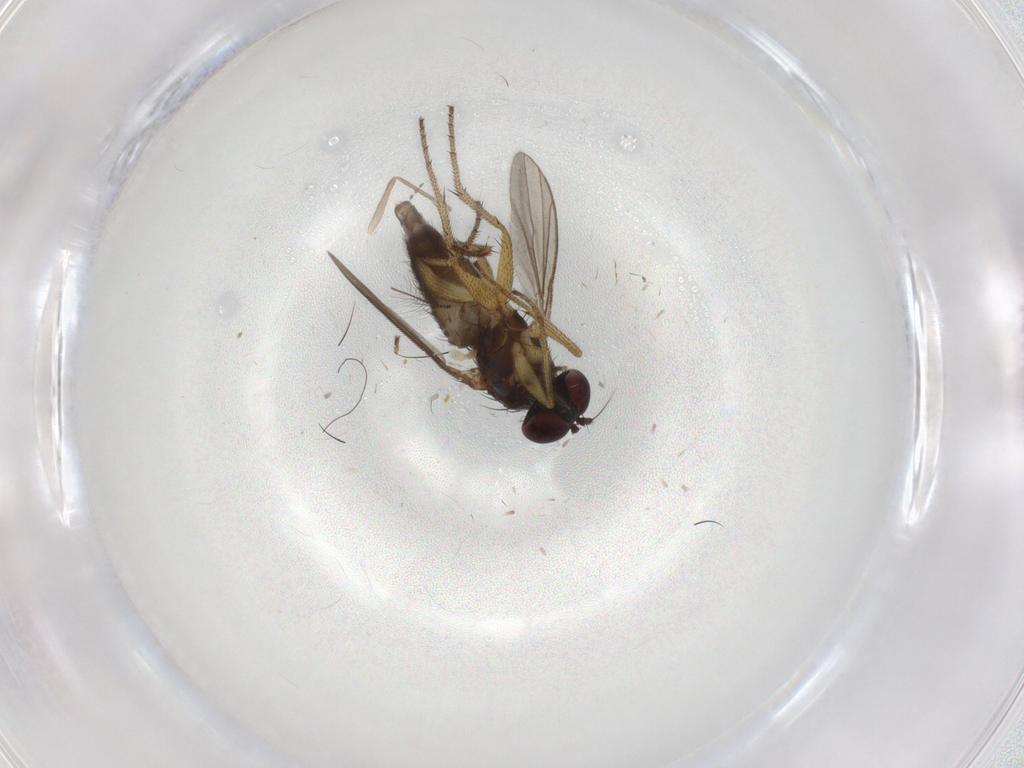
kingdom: Animalia
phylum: Arthropoda
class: Insecta
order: Diptera
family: Chironomidae
